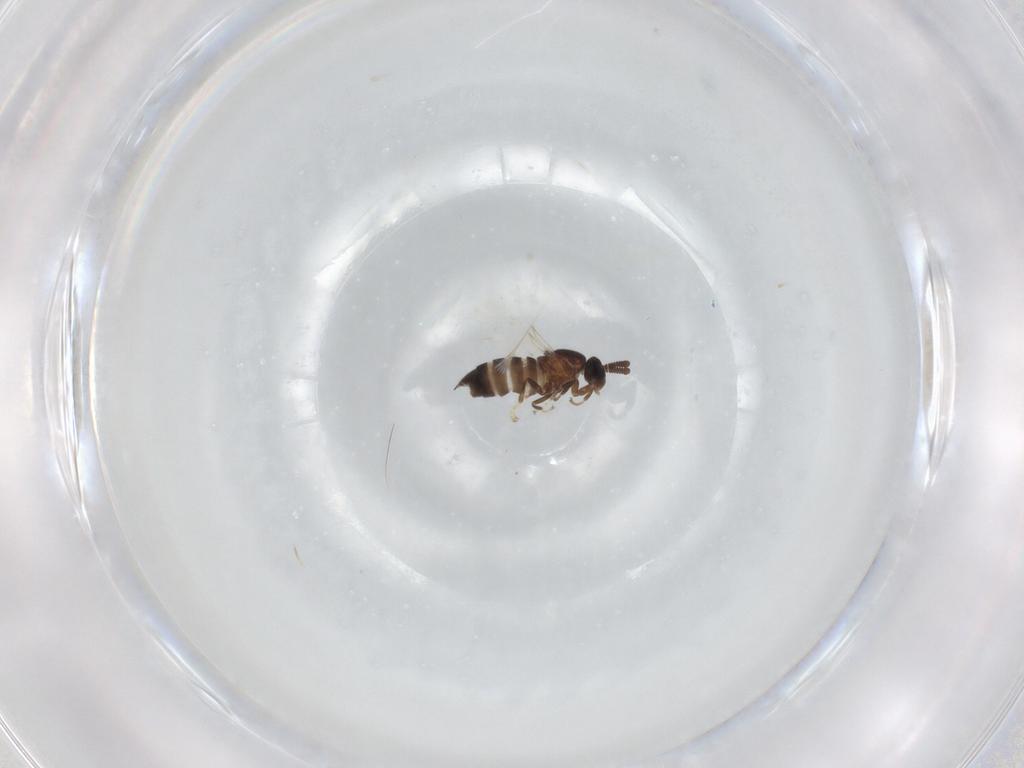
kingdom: Animalia
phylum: Arthropoda
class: Insecta
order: Diptera
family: Scatopsidae
